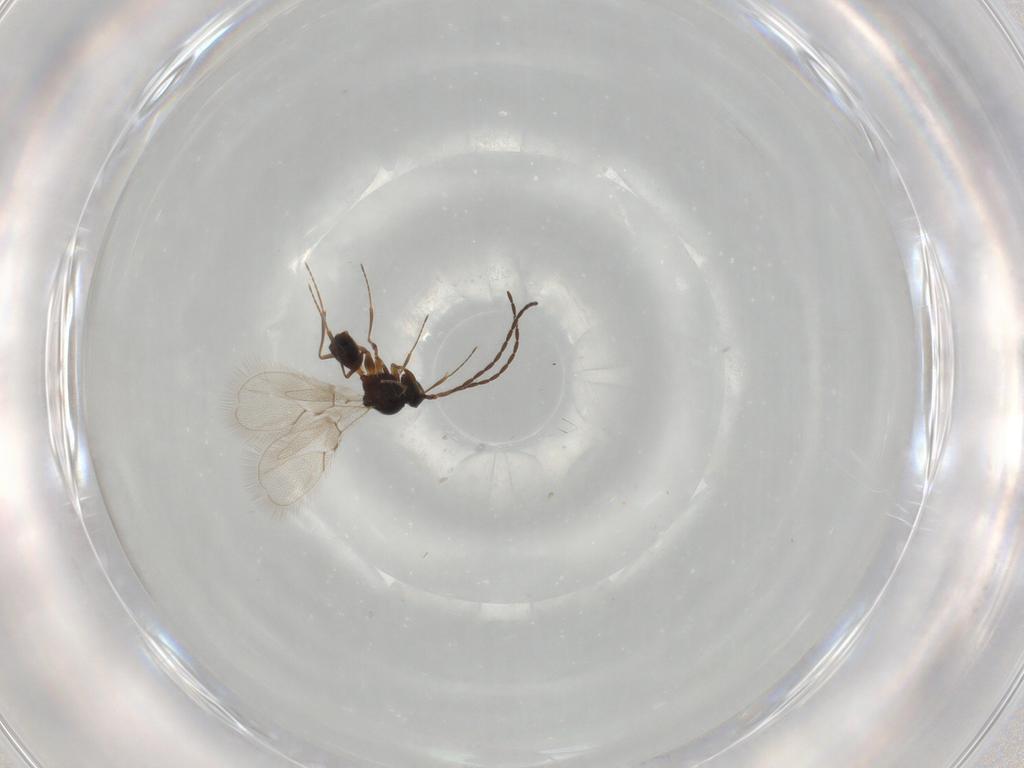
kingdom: Animalia
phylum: Arthropoda
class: Insecta
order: Hymenoptera
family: Figitidae
